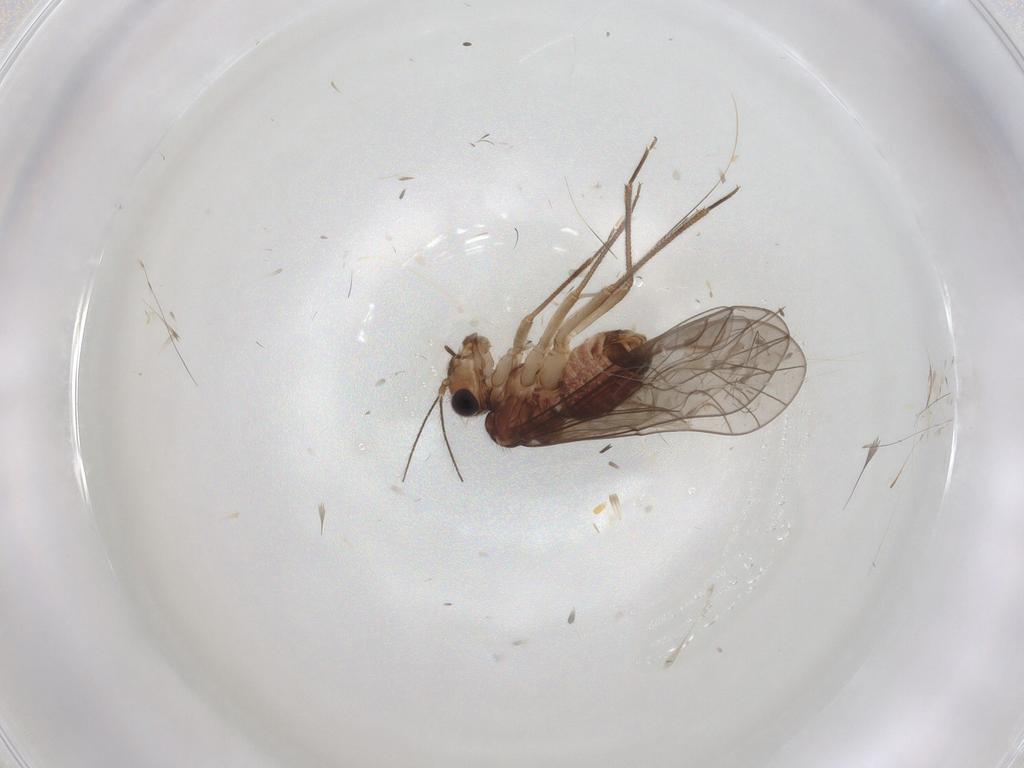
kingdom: Animalia
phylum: Arthropoda
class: Insecta
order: Psocodea
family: Lachesillidae
